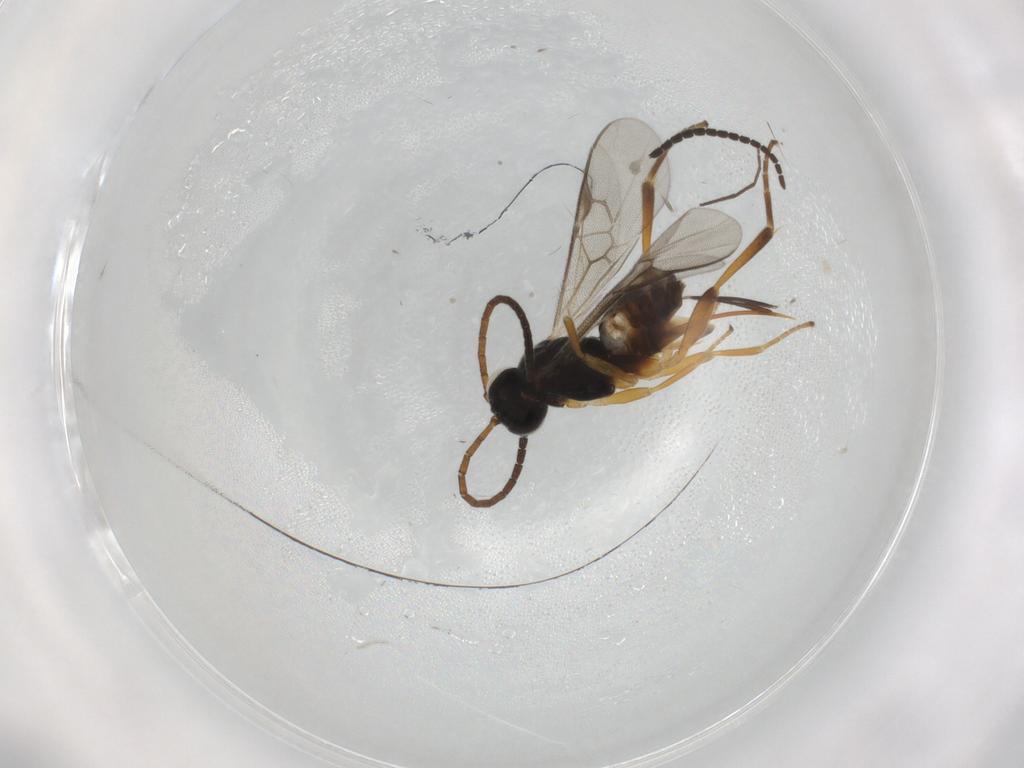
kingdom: Animalia
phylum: Arthropoda
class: Insecta
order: Hymenoptera
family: Braconidae
